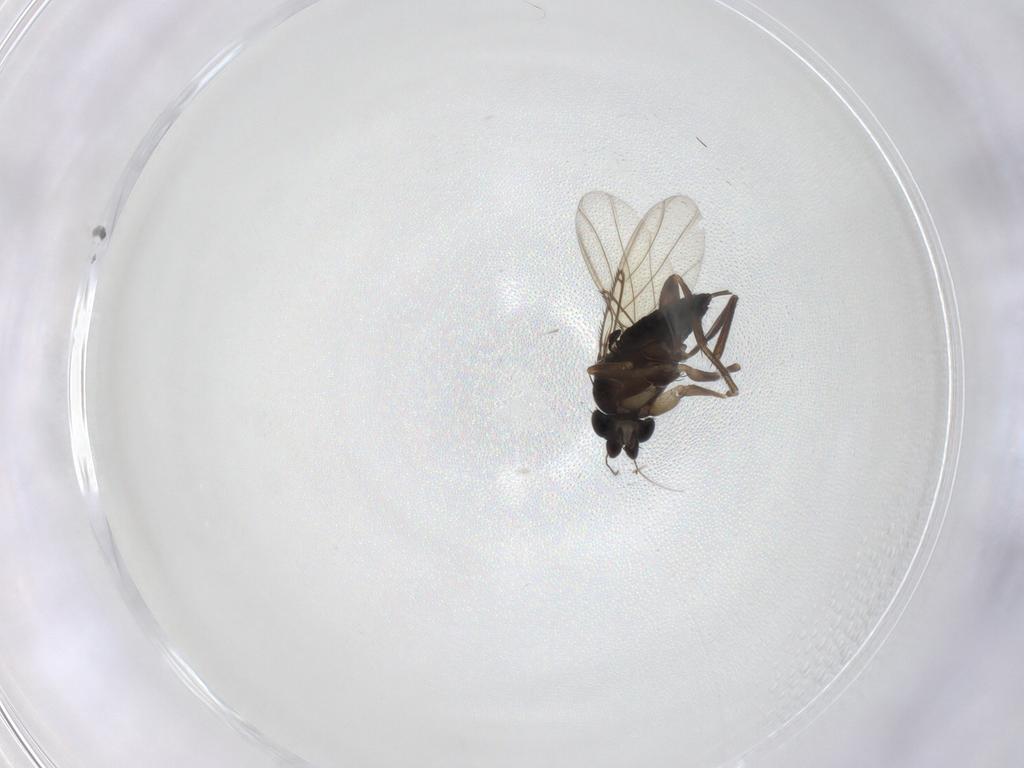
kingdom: Animalia
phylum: Arthropoda
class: Insecta
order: Diptera
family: Phoridae
